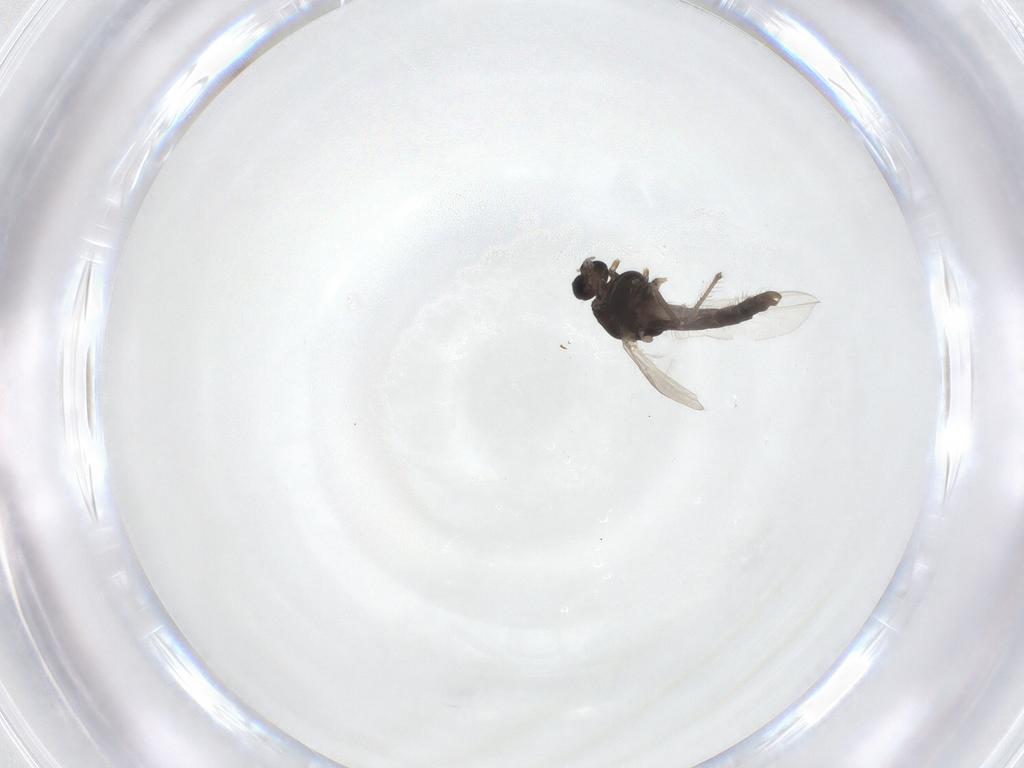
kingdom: Animalia
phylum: Arthropoda
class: Insecta
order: Diptera
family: Chironomidae
